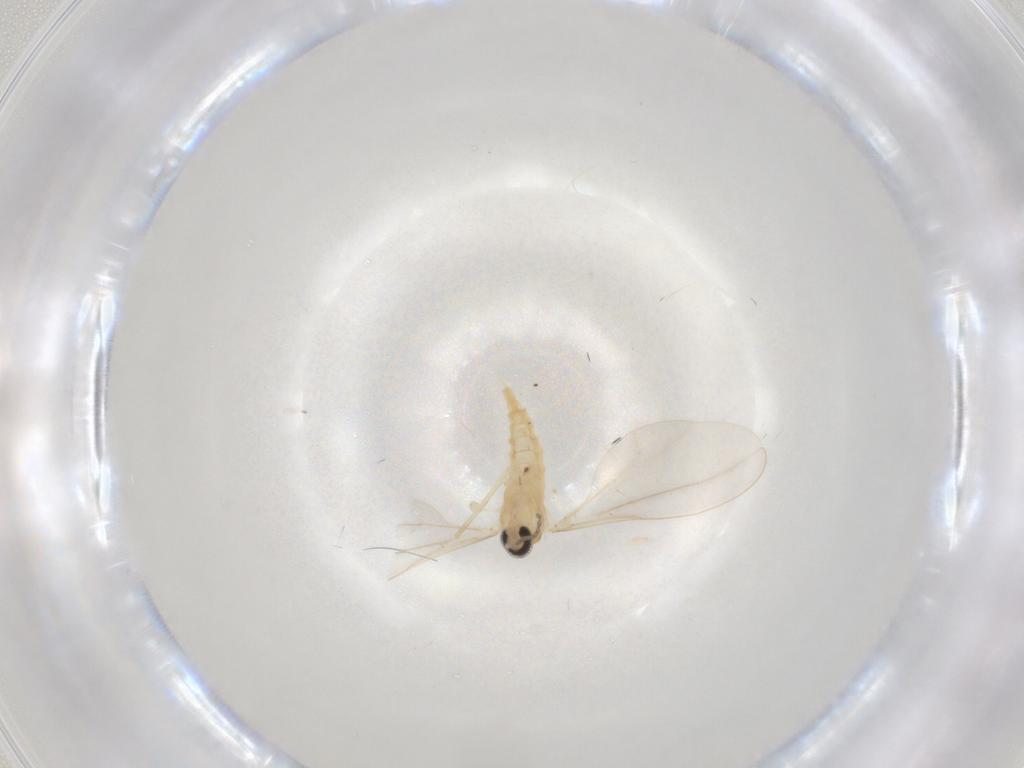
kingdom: Animalia
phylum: Arthropoda
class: Insecta
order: Diptera
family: Cecidomyiidae
